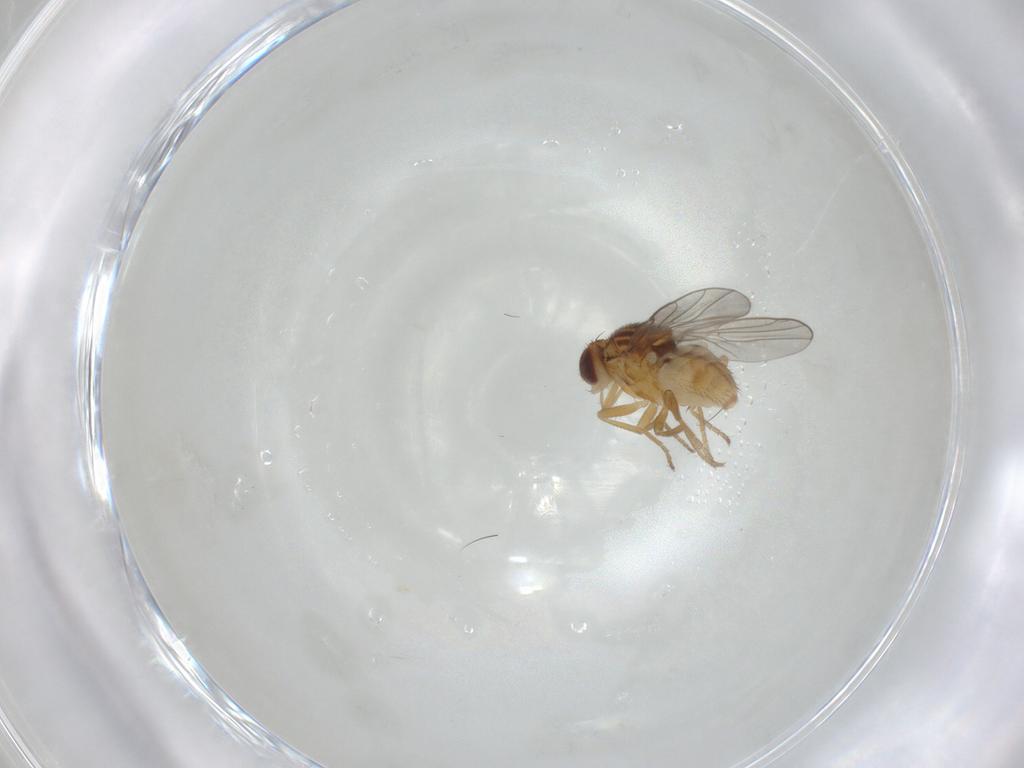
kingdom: Animalia
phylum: Arthropoda
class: Insecta
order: Diptera
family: Chloropidae
